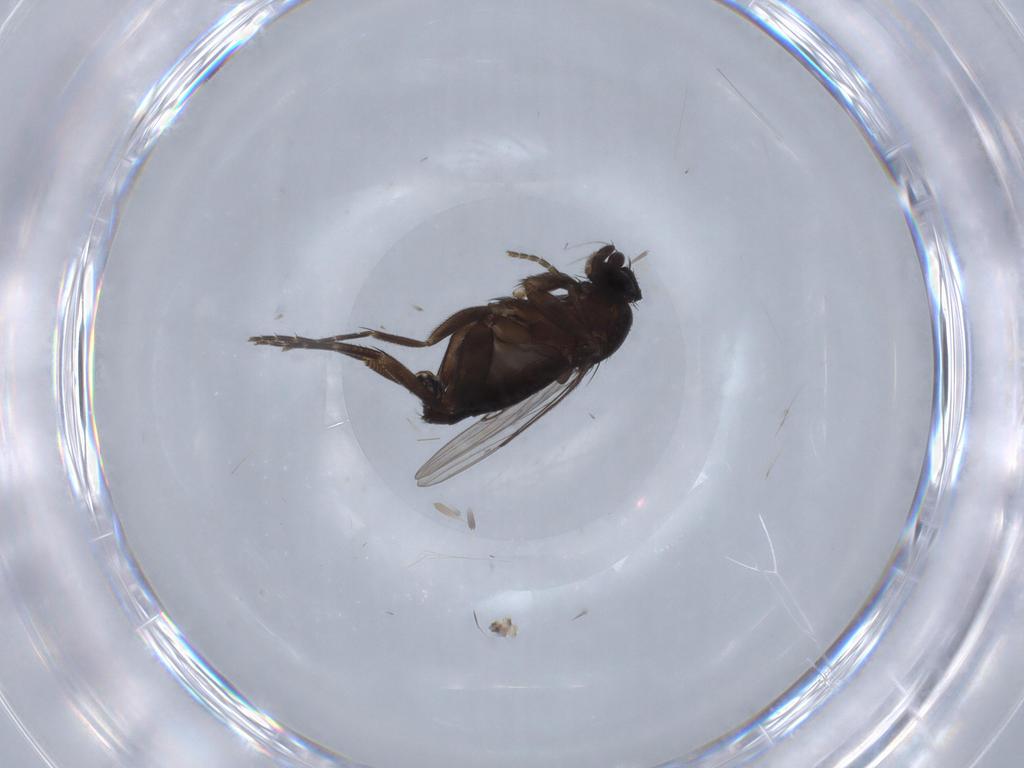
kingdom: Animalia
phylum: Arthropoda
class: Insecta
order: Diptera
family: Phoridae
